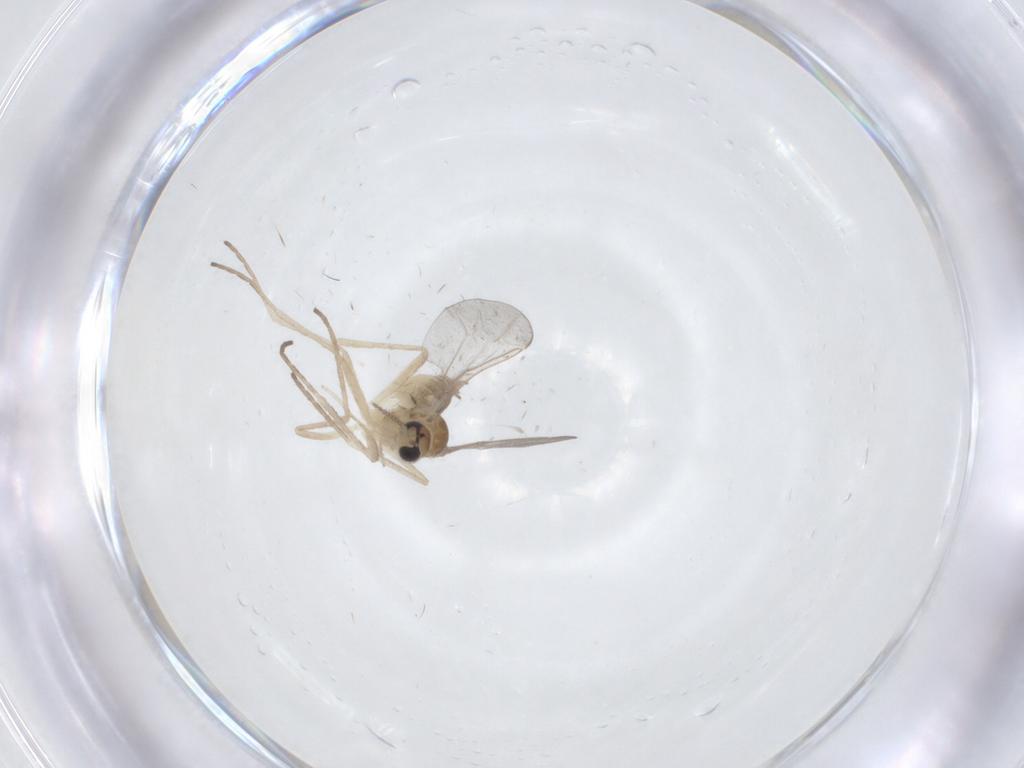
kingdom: Animalia
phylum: Arthropoda
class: Insecta
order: Diptera
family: Cecidomyiidae
